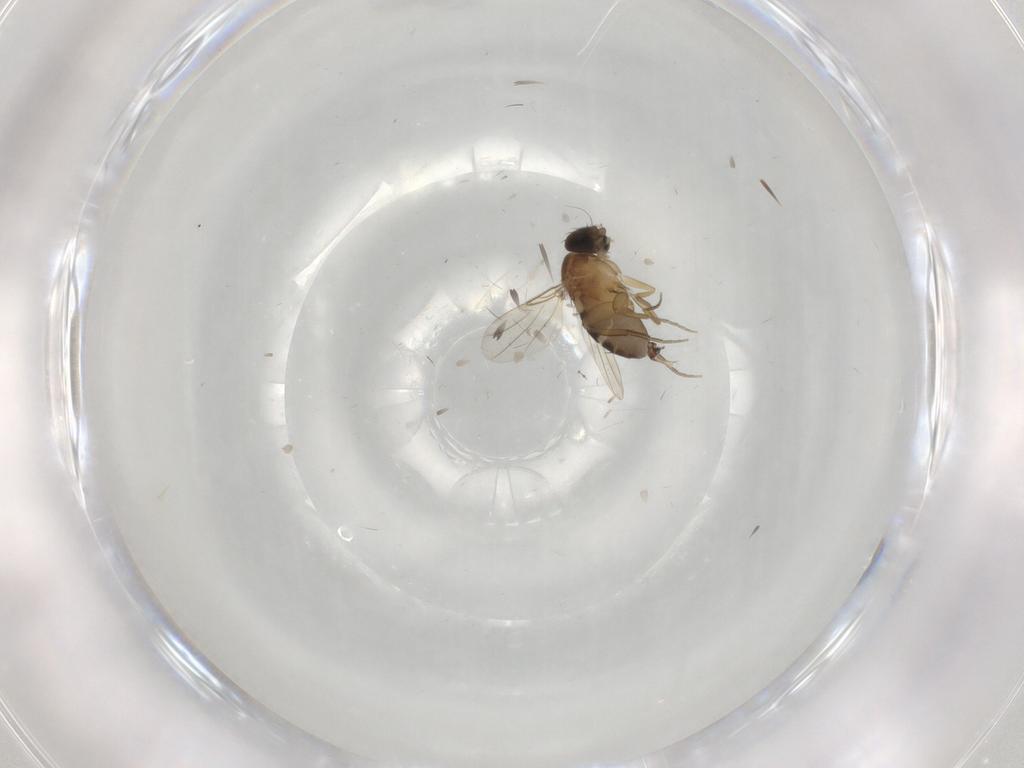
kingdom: Animalia
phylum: Arthropoda
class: Insecta
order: Diptera
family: Phoridae
